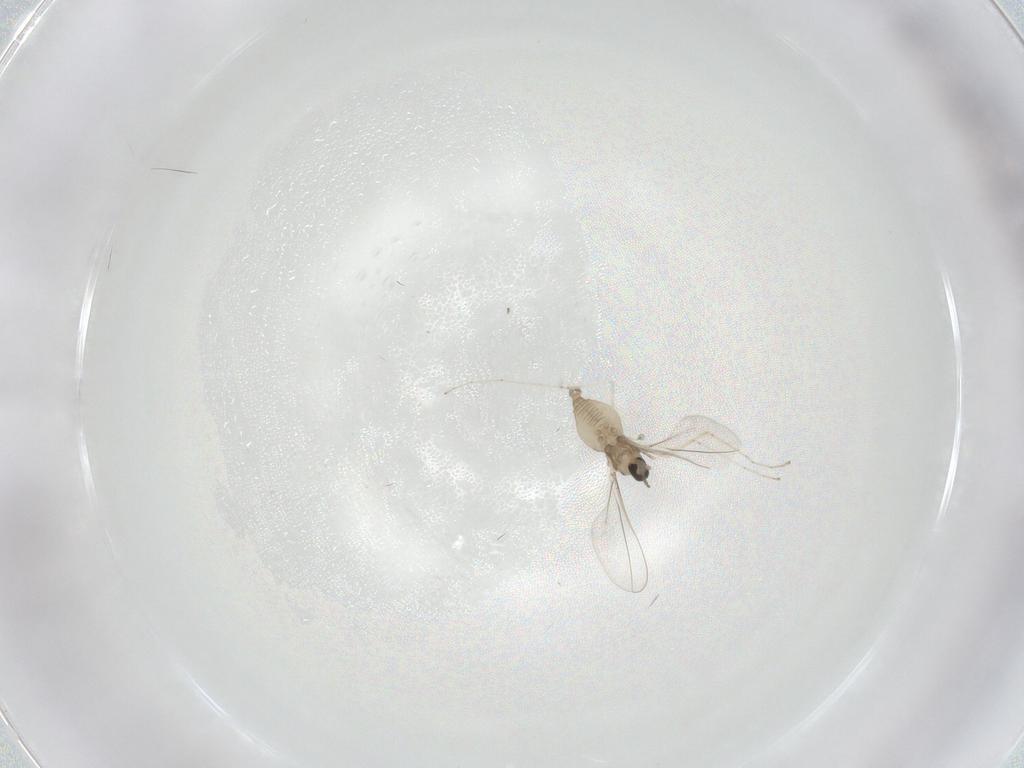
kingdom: Animalia
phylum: Arthropoda
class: Insecta
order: Diptera
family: Cecidomyiidae
